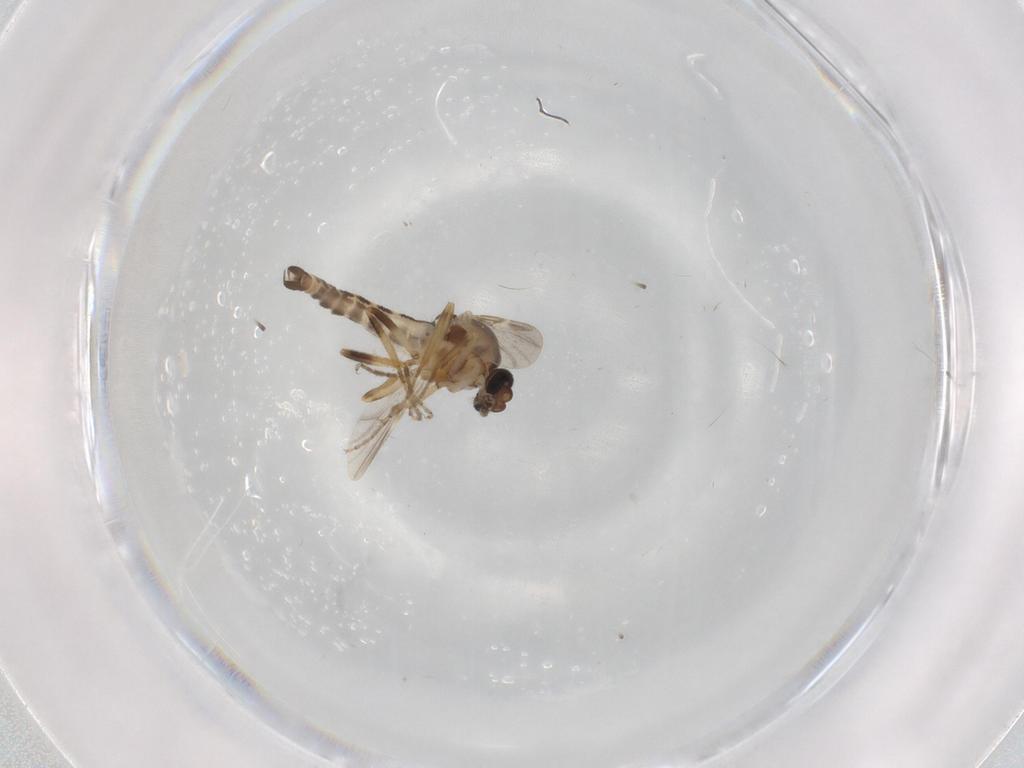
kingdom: Animalia
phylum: Arthropoda
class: Insecta
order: Diptera
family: Ceratopogonidae
